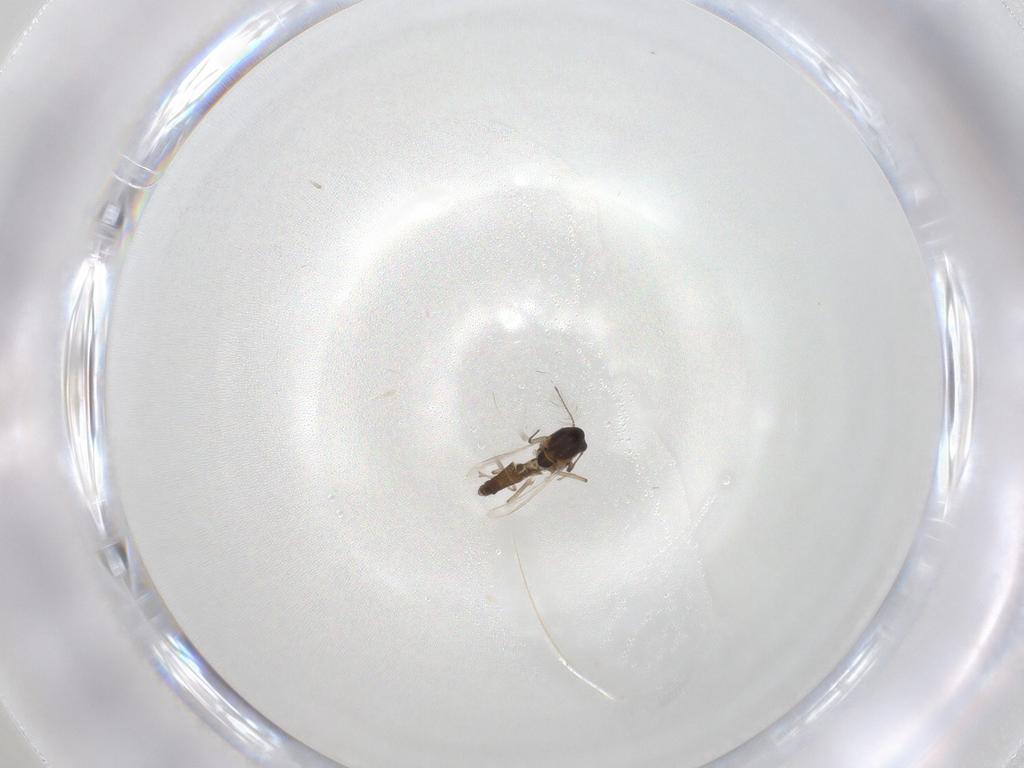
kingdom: Animalia
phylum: Arthropoda
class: Insecta
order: Diptera
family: Chironomidae
